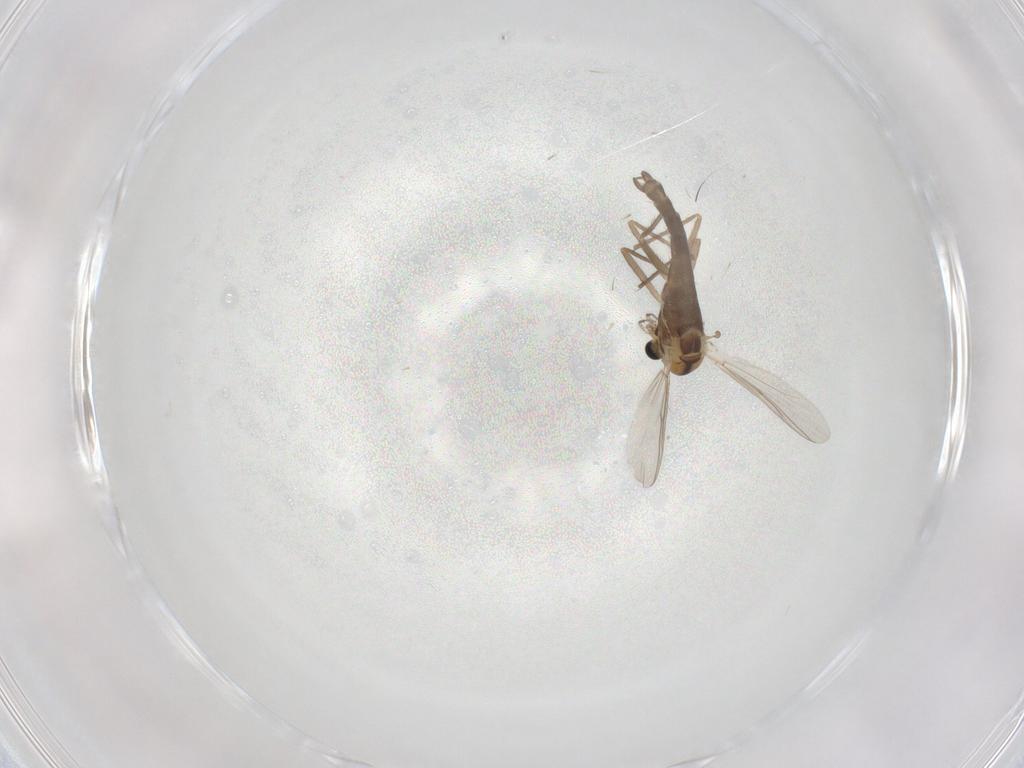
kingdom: Animalia
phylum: Arthropoda
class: Insecta
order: Diptera
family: Chironomidae
